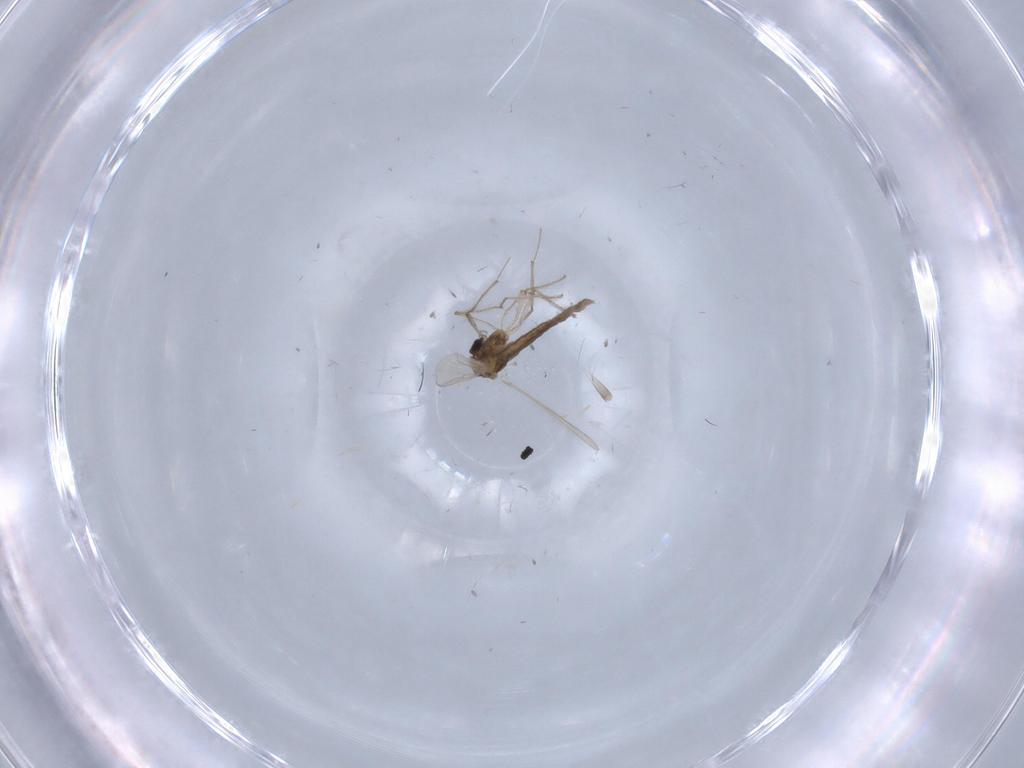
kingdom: Animalia
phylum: Arthropoda
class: Insecta
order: Diptera
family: Chironomidae
